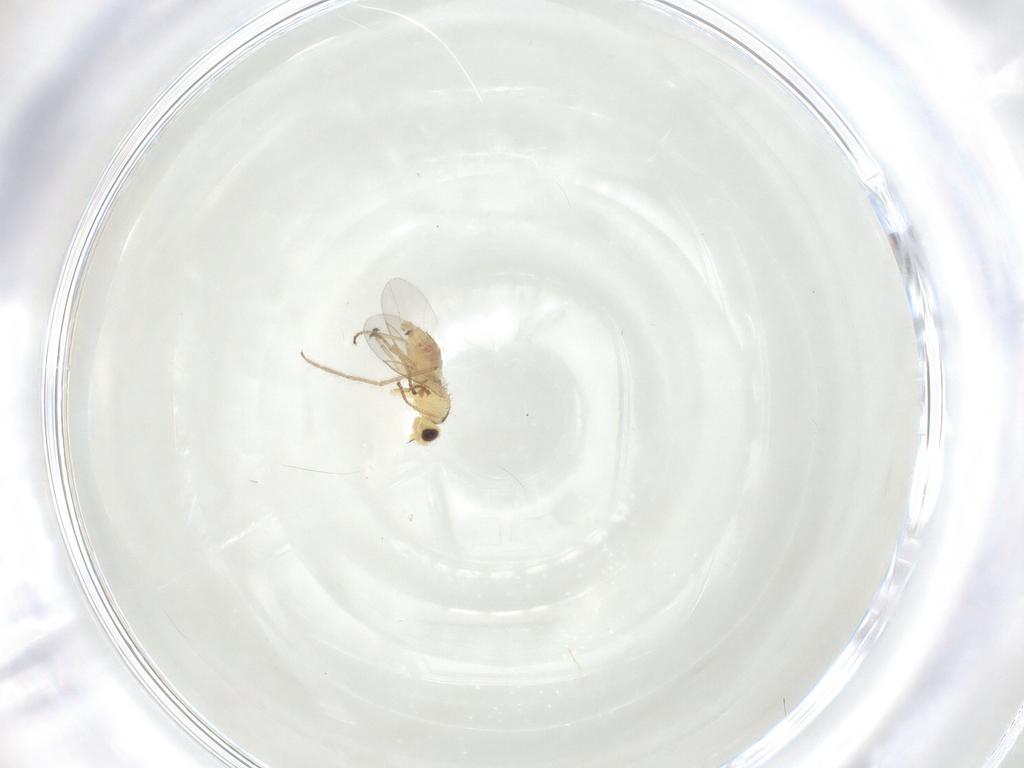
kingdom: Animalia
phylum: Arthropoda
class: Insecta
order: Diptera
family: Agromyzidae
